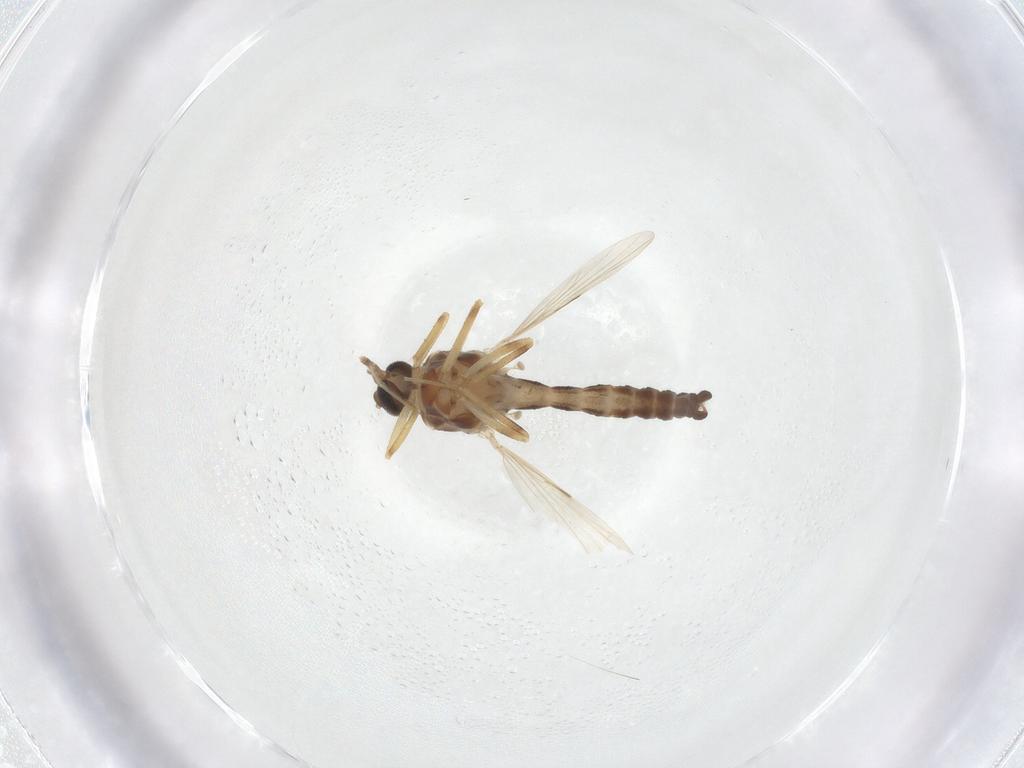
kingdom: Animalia
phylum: Arthropoda
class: Insecta
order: Diptera
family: Ceratopogonidae
